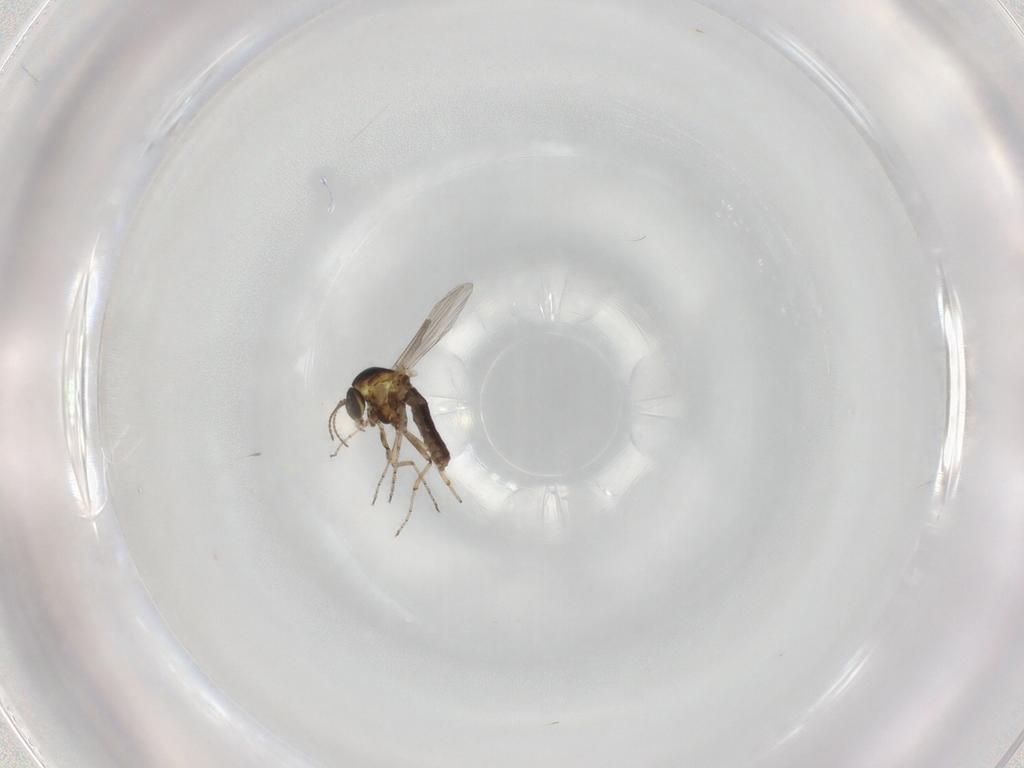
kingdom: Animalia
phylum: Arthropoda
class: Insecta
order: Diptera
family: Ceratopogonidae
